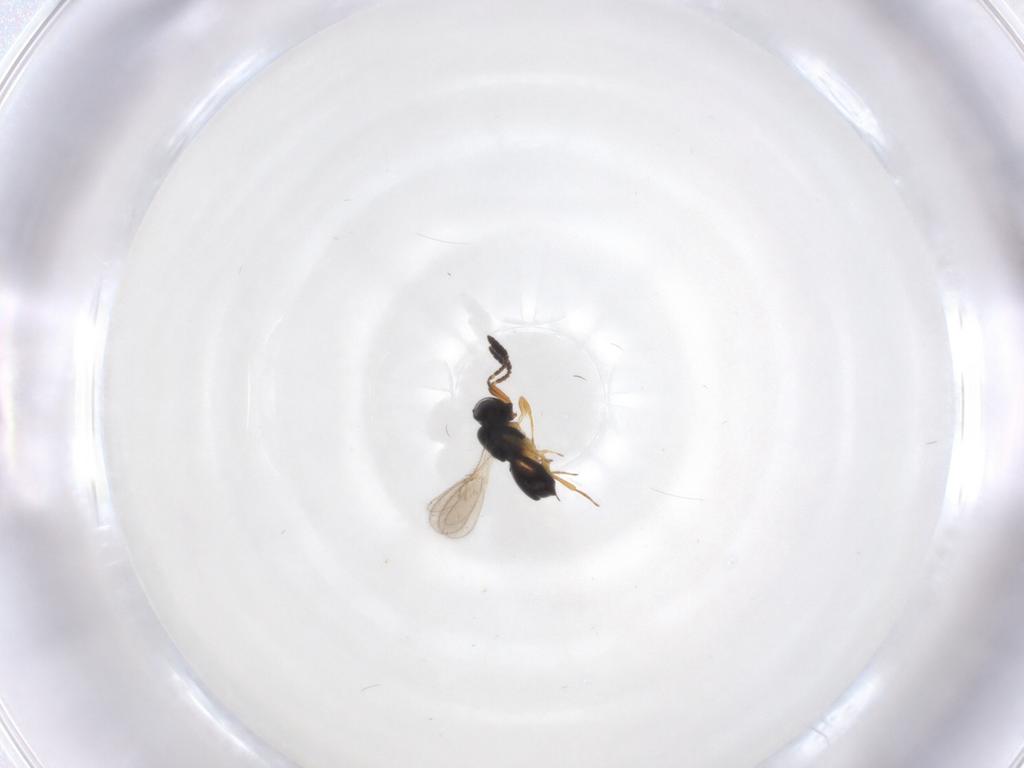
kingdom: Animalia
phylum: Arthropoda
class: Insecta
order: Hymenoptera
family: Scelionidae
